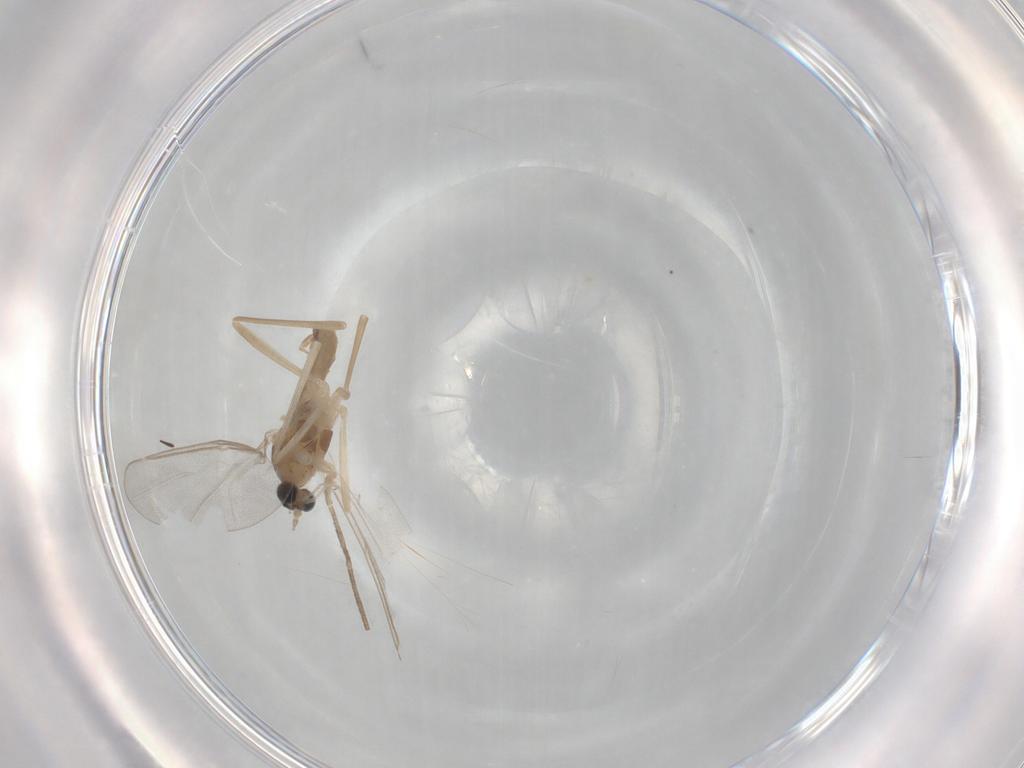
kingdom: Animalia
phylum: Arthropoda
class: Insecta
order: Diptera
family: Cecidomyiidae
